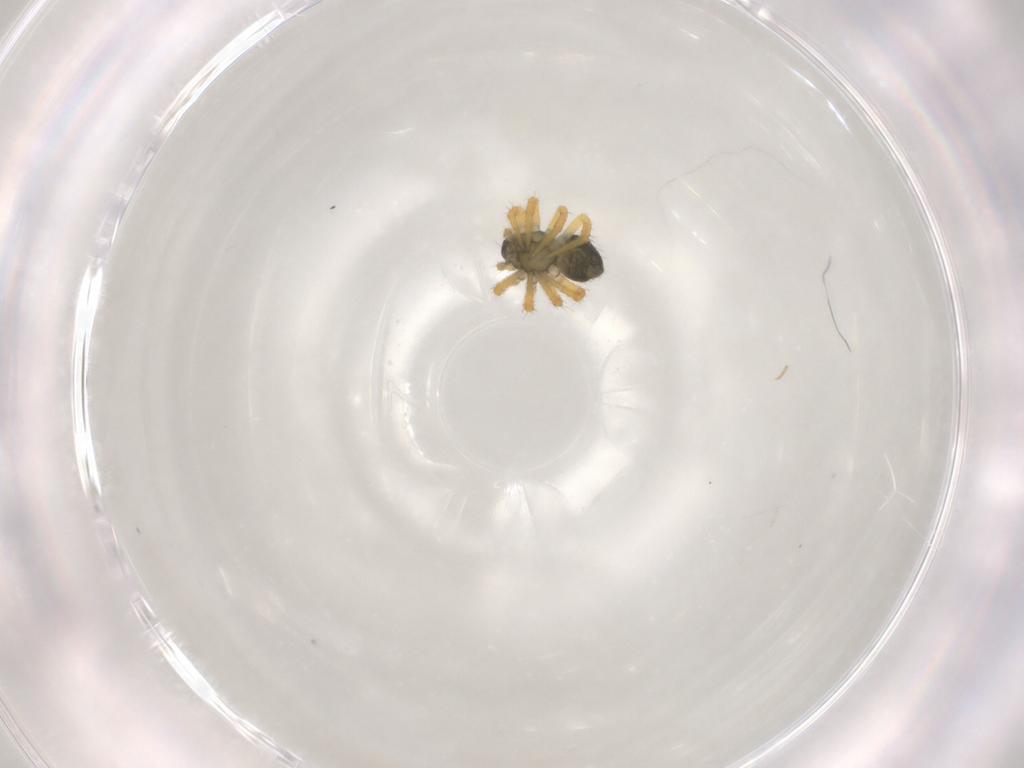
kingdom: Animalia
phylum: Arthropoda
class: Arachnida
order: Araneae
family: Theridiidae
